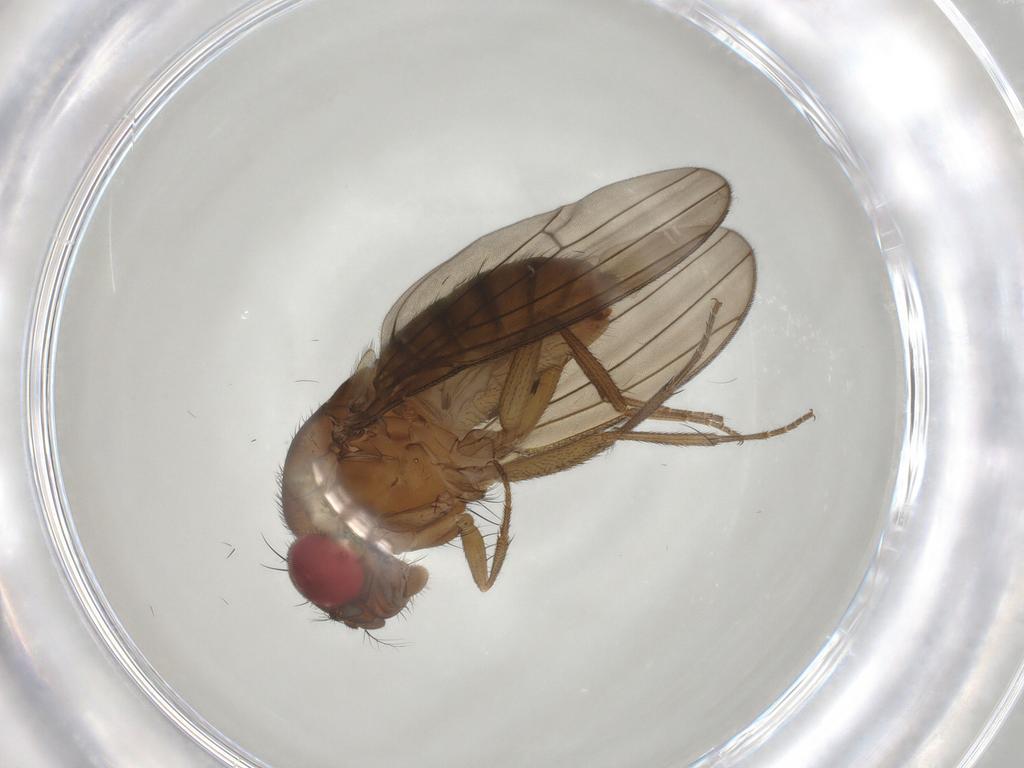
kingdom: Animalia
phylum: Arthropoda
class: Insecta
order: Diptera
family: Drosophilidae
